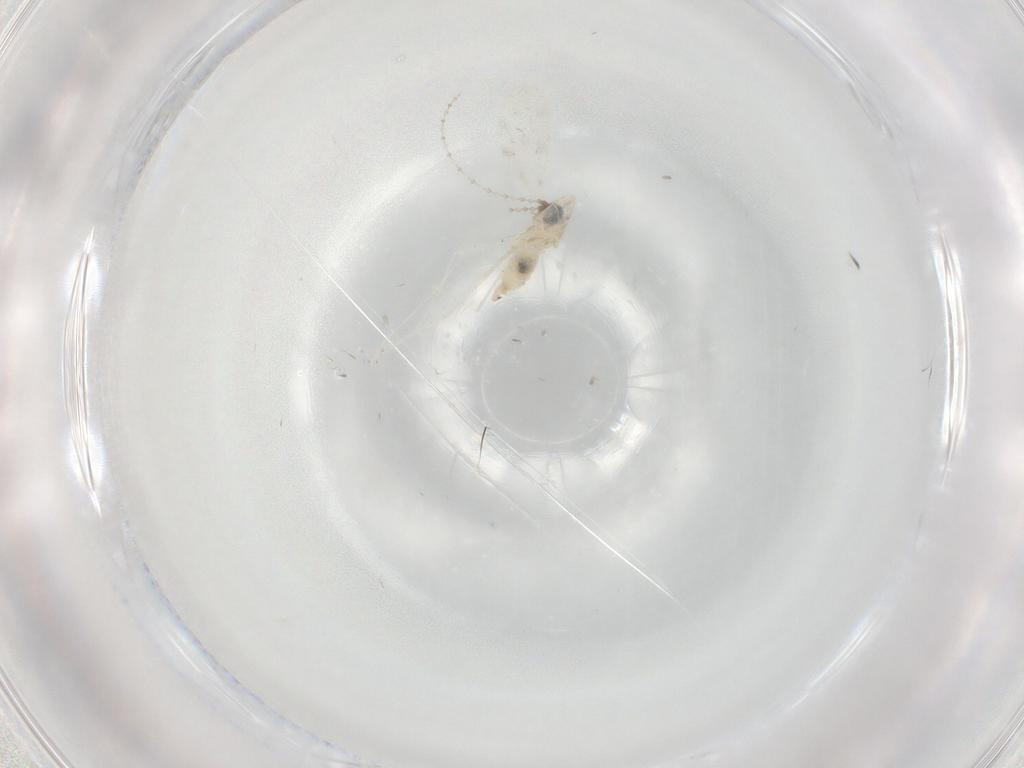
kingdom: Animalia
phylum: Arthropoda
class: Insecta
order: Diptera
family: Cecidomyiidae
